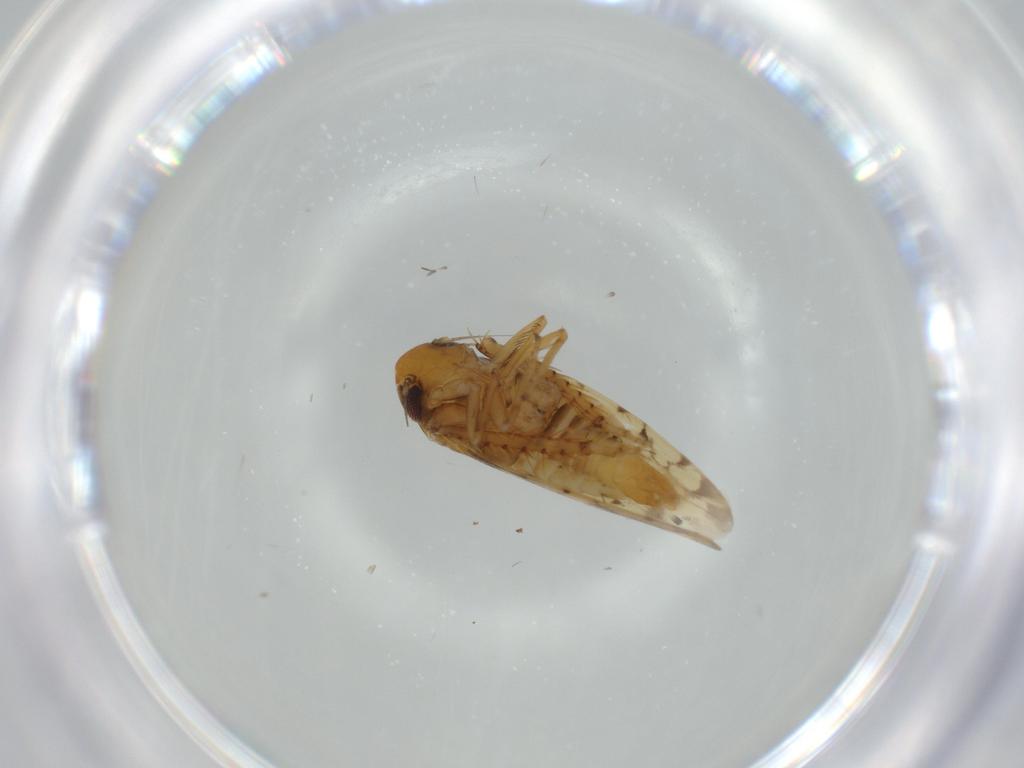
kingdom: Animalia
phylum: Arthropoda
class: Insecta
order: Hemiptera
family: Cicadellidae
